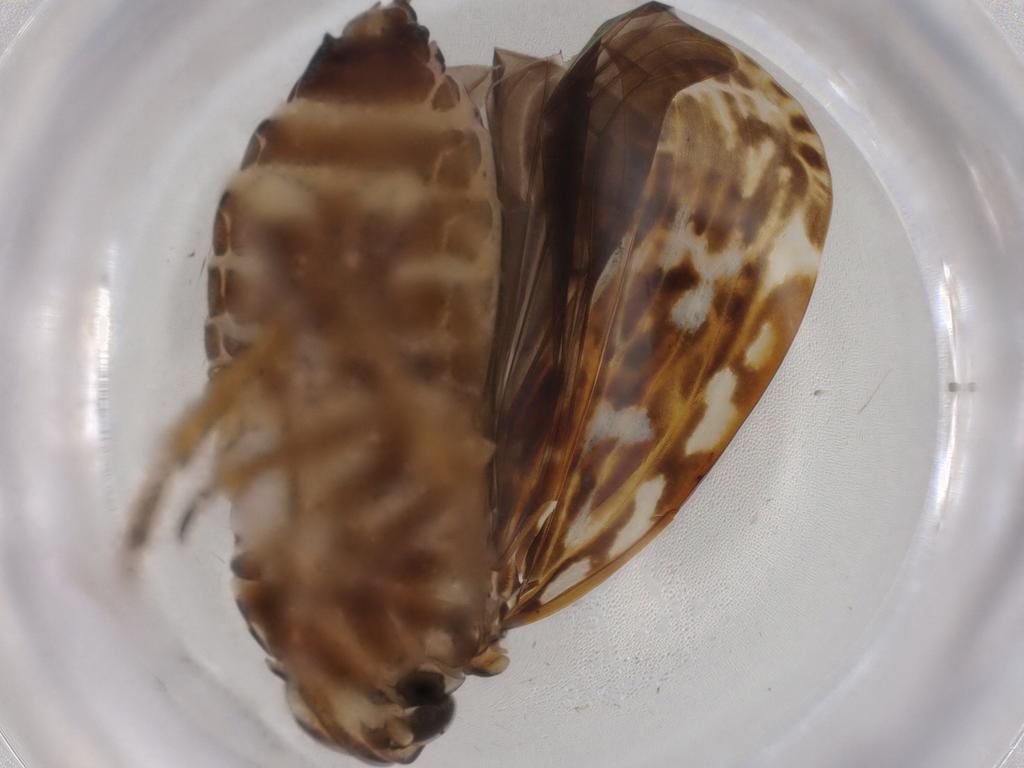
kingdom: Animalia
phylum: Arthropoda
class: Insecta
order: Hemiptera
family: Achilidae
